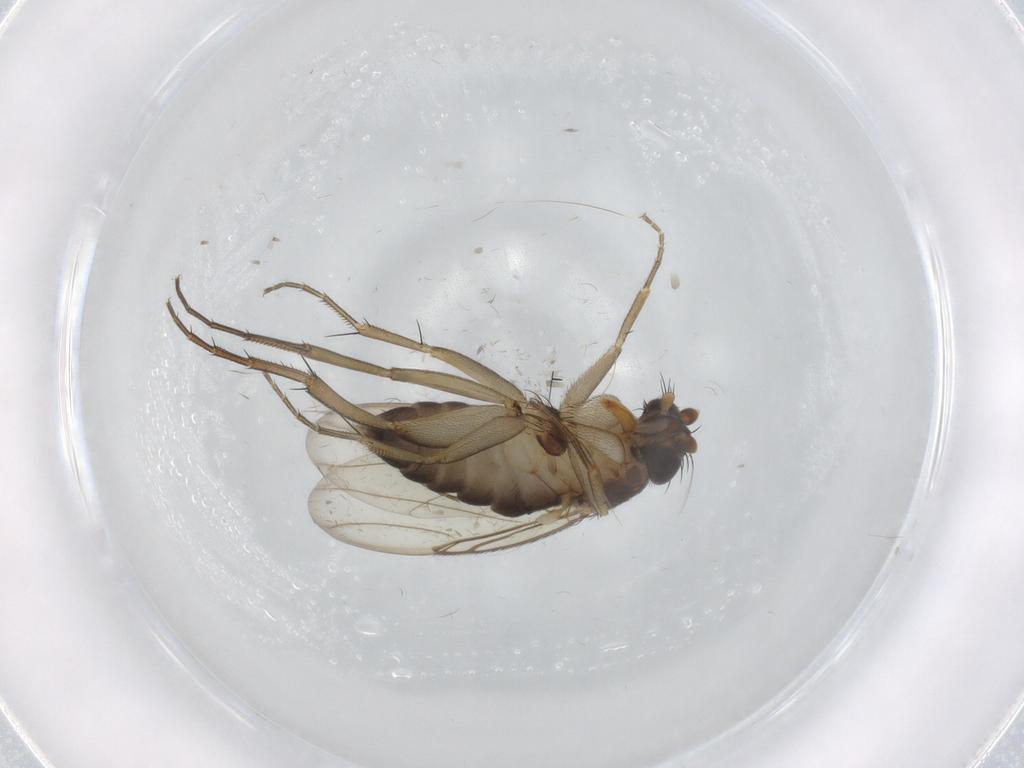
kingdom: Animalia
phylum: Arthropoda
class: Insecta
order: Diptera
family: Phoridae
